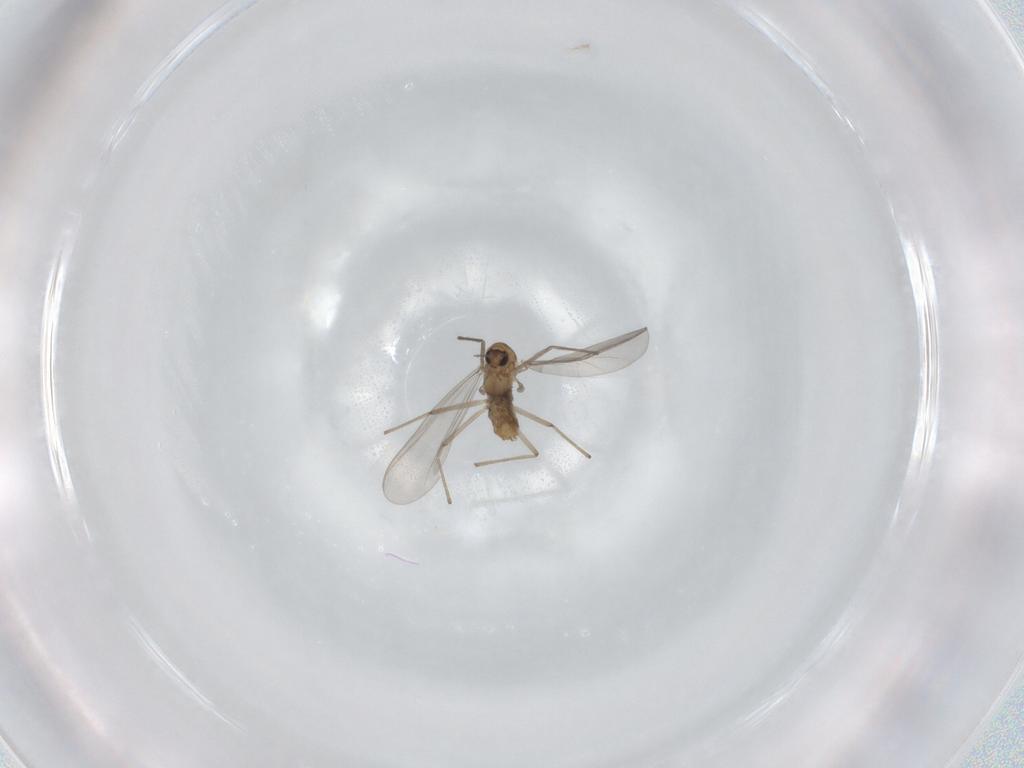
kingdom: Animalia
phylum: Arthropoda
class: Insecta
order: Diptera
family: Chironomidae
